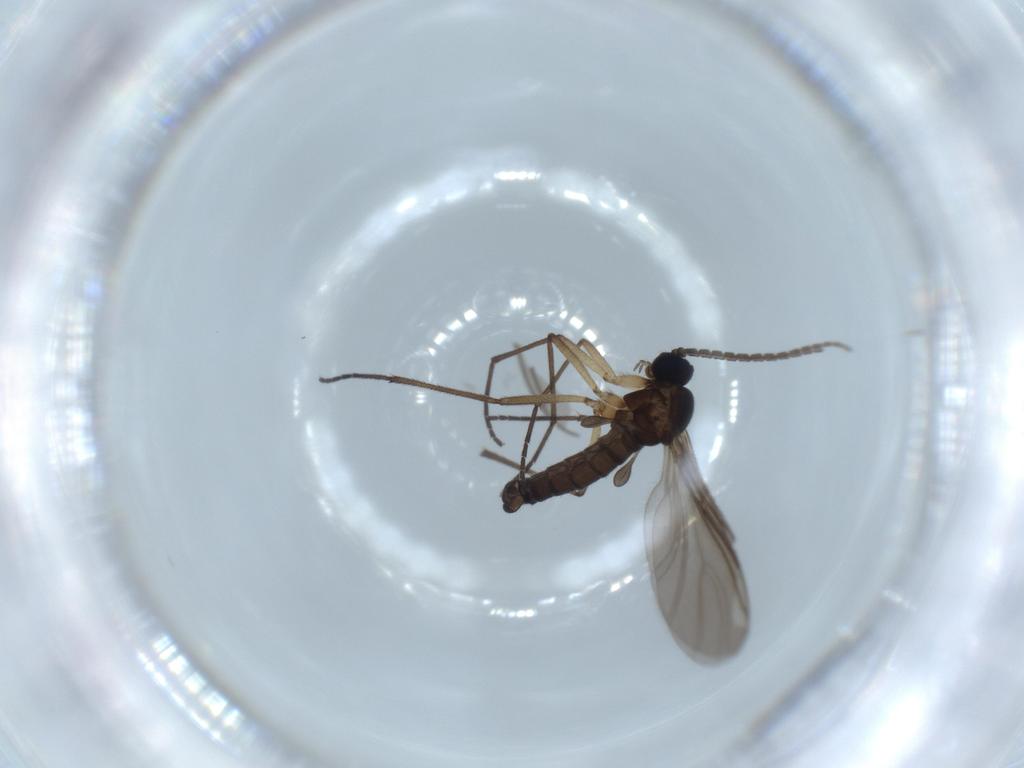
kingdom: Animalia
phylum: Arthropoda
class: Insecta
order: Diptera
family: Sciaridae
